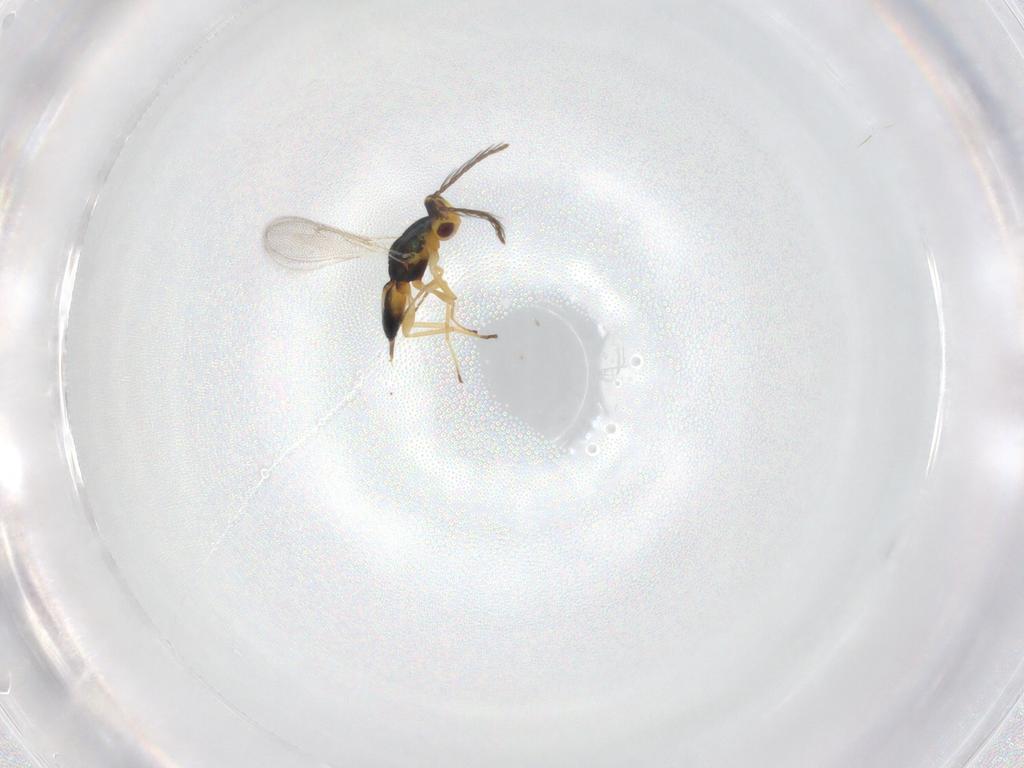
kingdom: Animalia
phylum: Arthropoda
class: Insecta
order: Hymenoptera
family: Eulophidae
